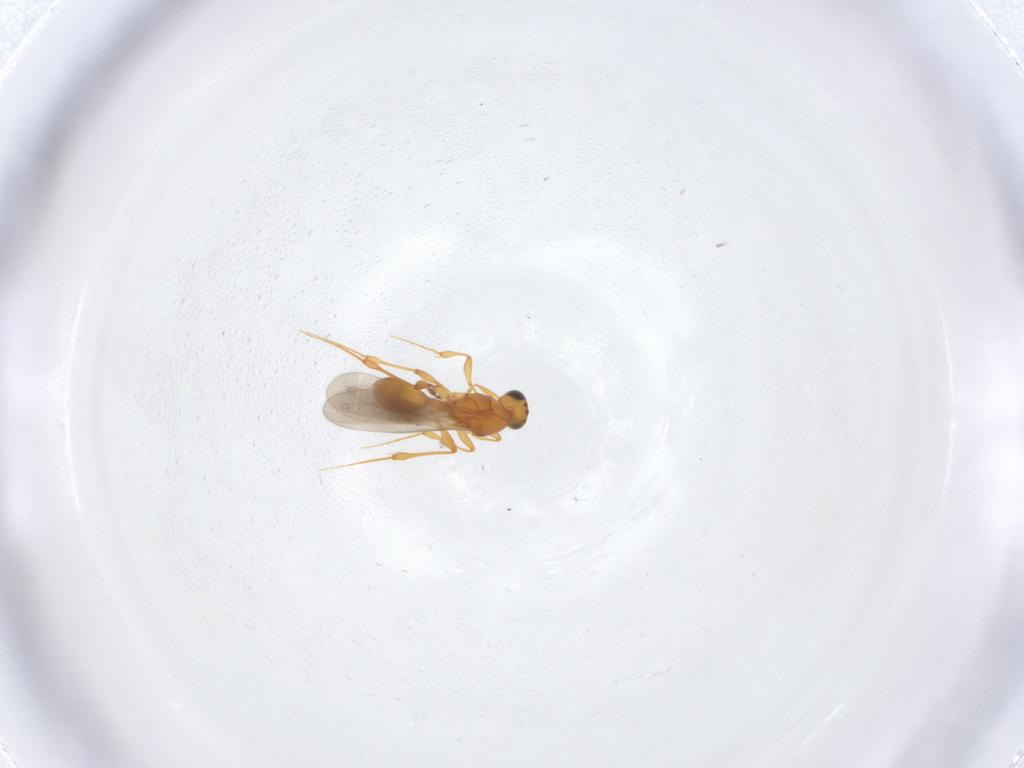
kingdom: Animalia
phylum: Arthropoda
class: Insecta
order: Hymenoptera
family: Platygastridae
